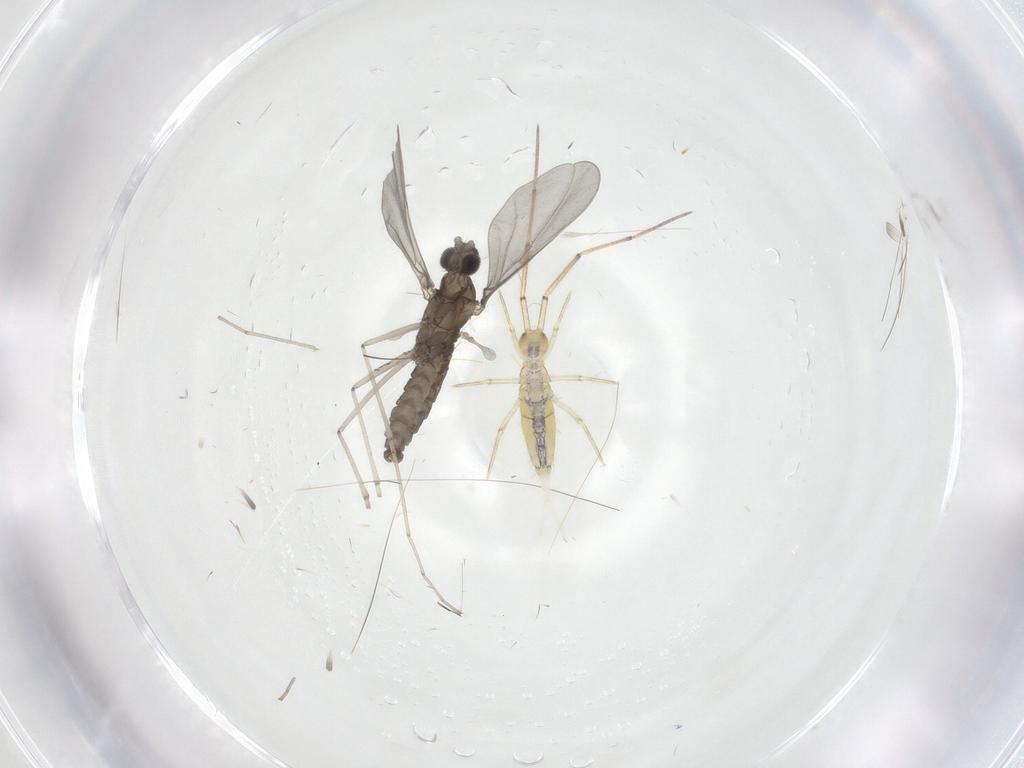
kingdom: Animalia
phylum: Arthropoda
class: Insecta
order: Diptera
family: Cecidomyiidae
